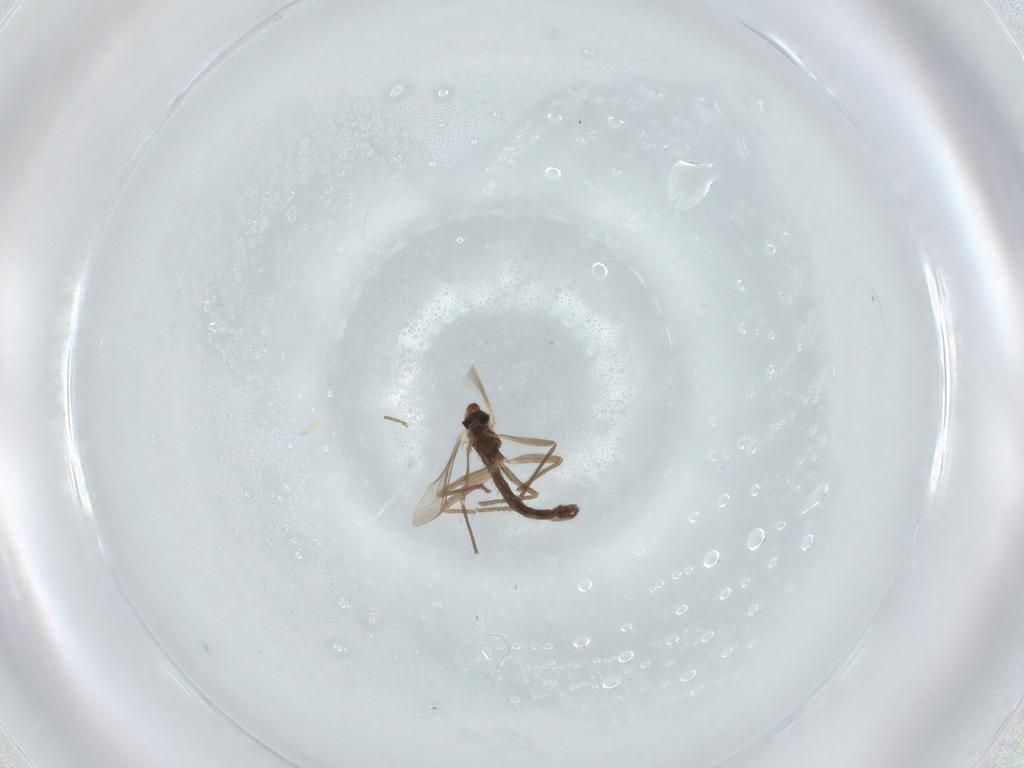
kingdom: Animalia
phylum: Arthropoda
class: Insecta
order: Diptera
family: Chironomidae
